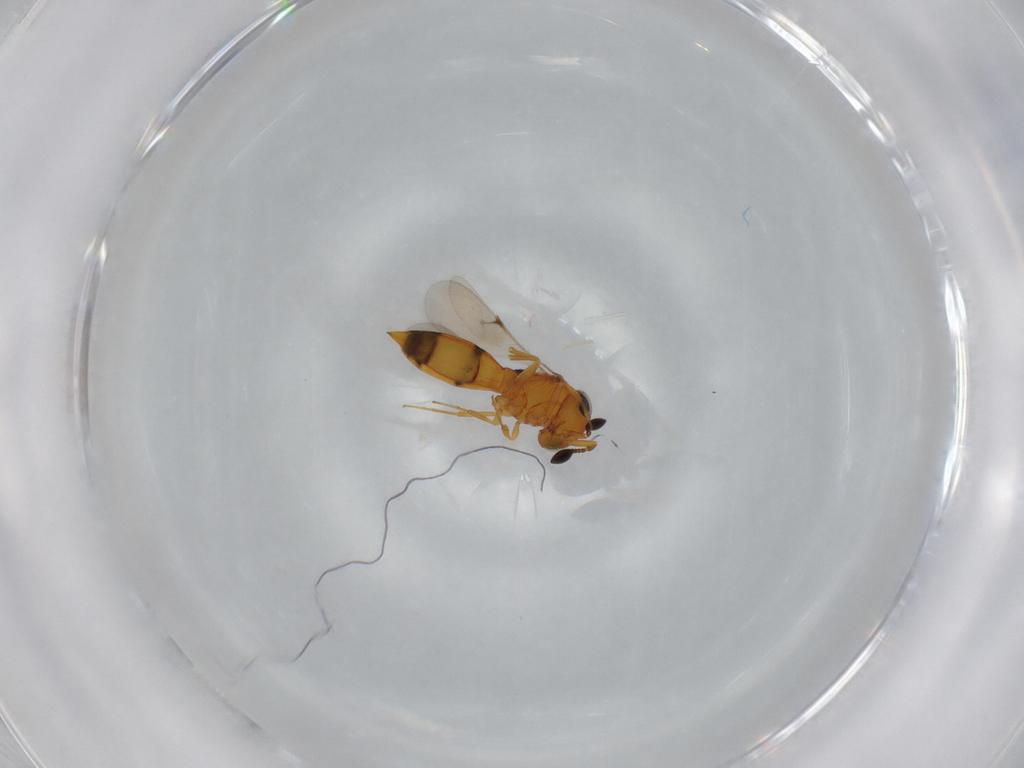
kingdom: Animalia
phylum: Arthropoda
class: Insecta
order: Hymenoptera
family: Scelionidae
